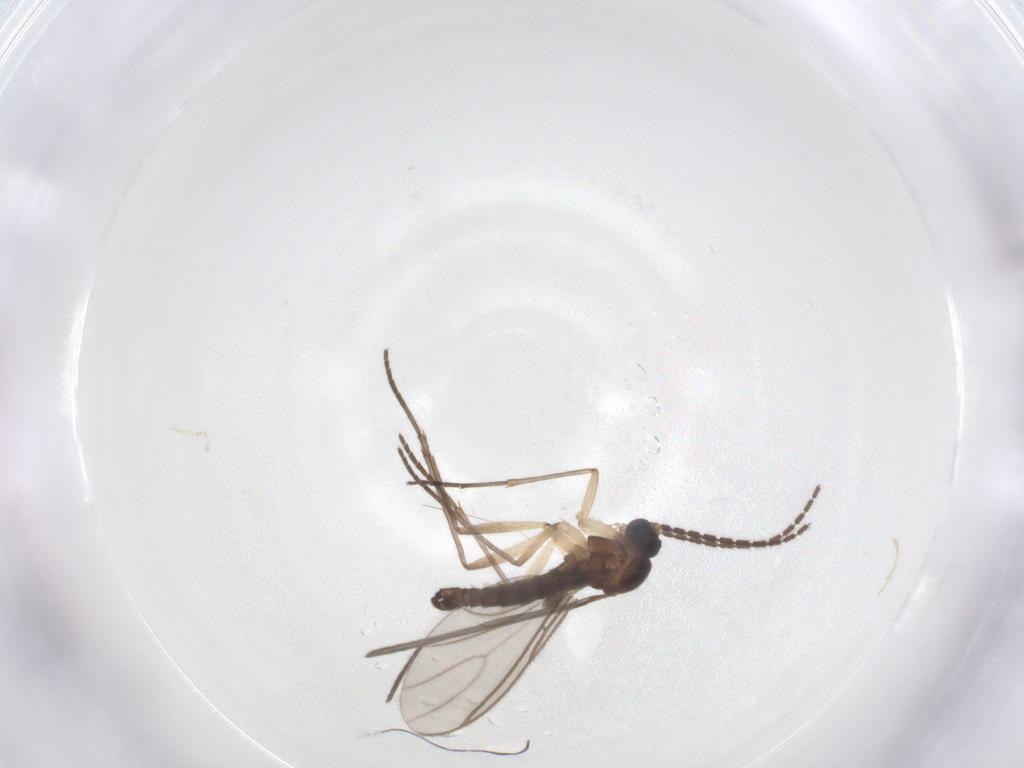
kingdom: Animalia
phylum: Arthropoda
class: Insecta
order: Diptera
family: Sciaridae
